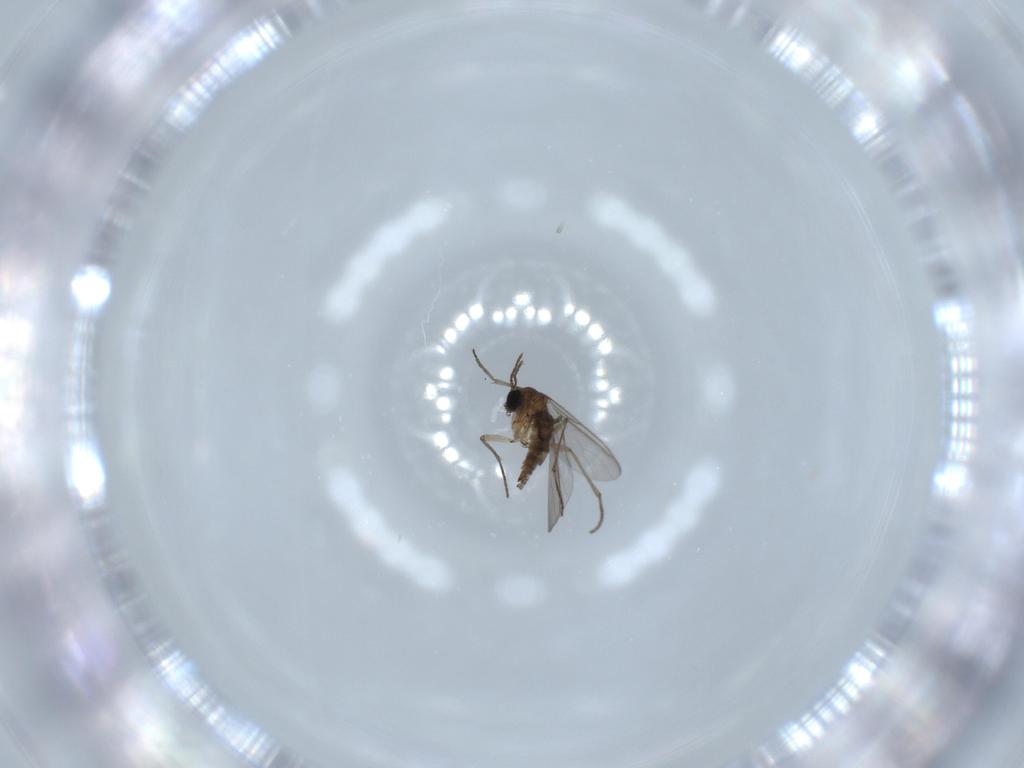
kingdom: Animalia
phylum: Arthropoda
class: Insecta
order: Diptera
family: Sciaridae
